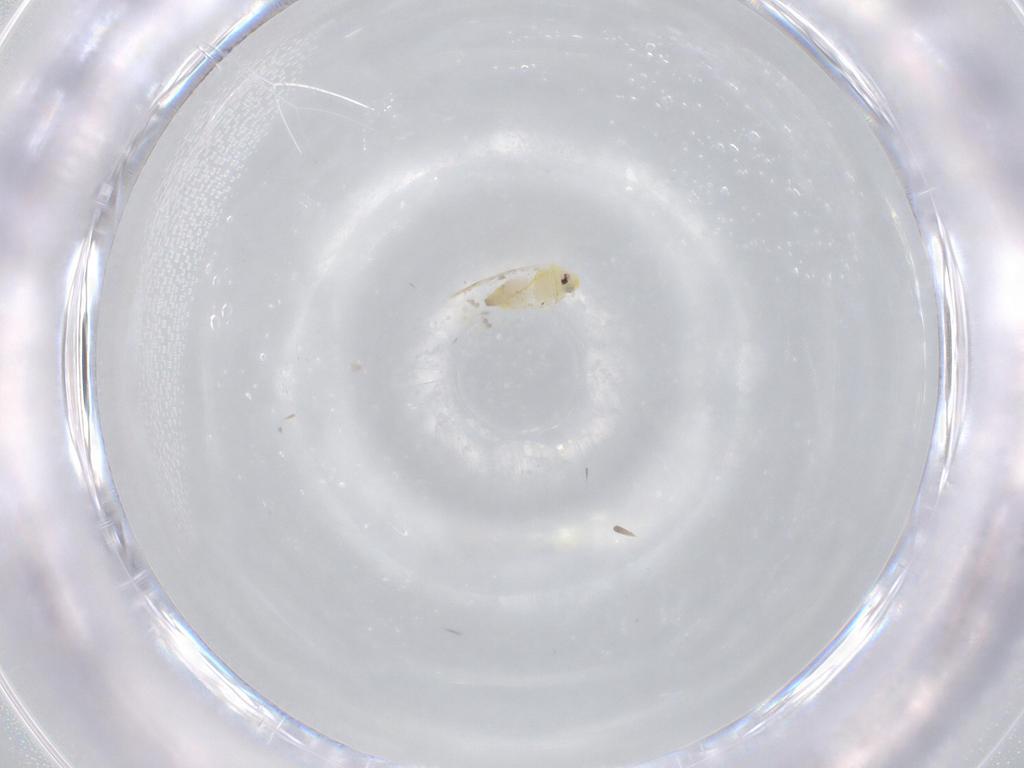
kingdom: Animalia
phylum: Arthropoda
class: Insecta
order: Hemiptera
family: Aleyrodidae
